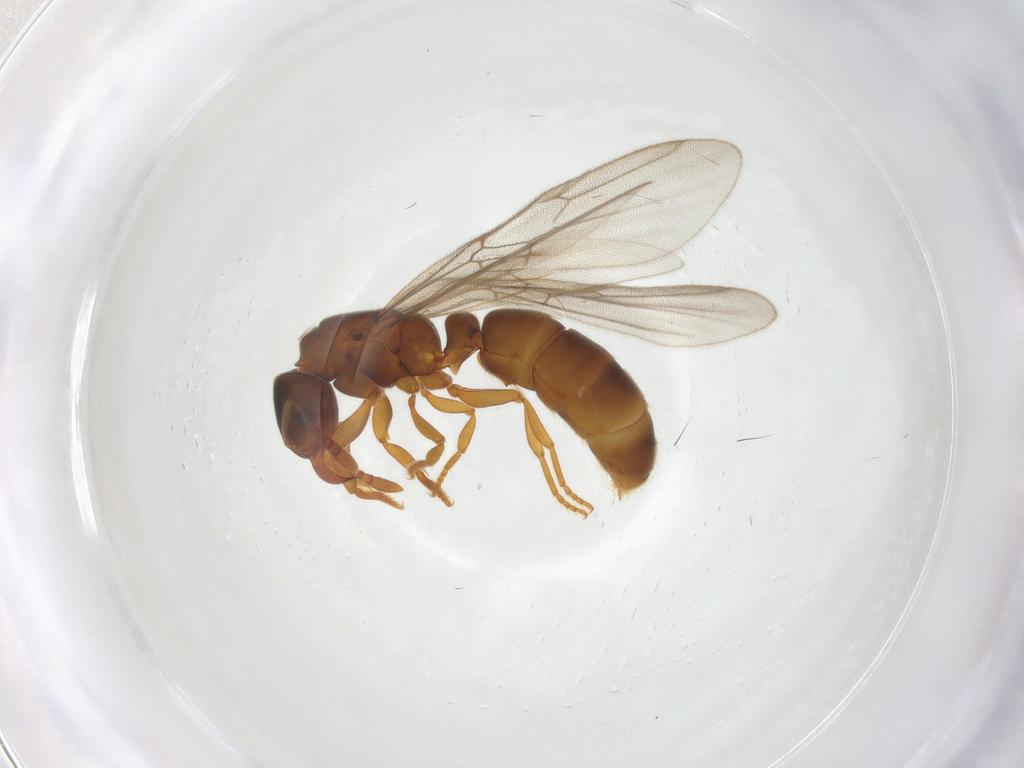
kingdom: Animalia
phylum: Arthropoda
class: Insecta
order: Hymenoptera
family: Formicidae
